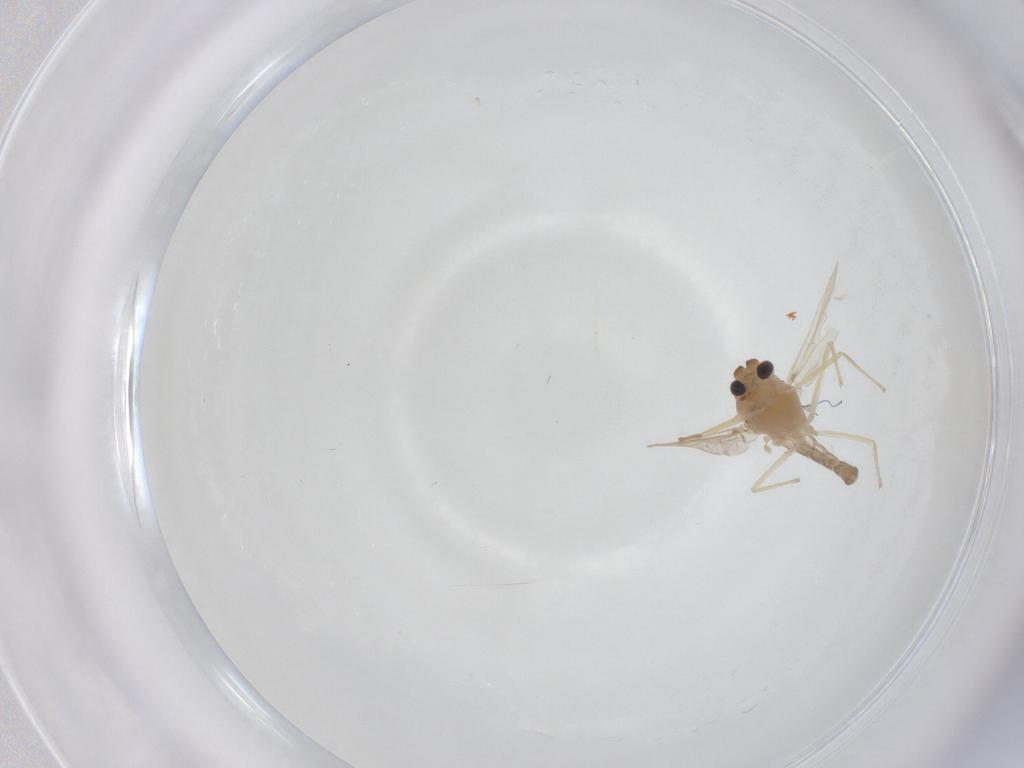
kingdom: Animalia
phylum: Arthropoda
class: Insecta
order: Diptera
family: Chironomidae
